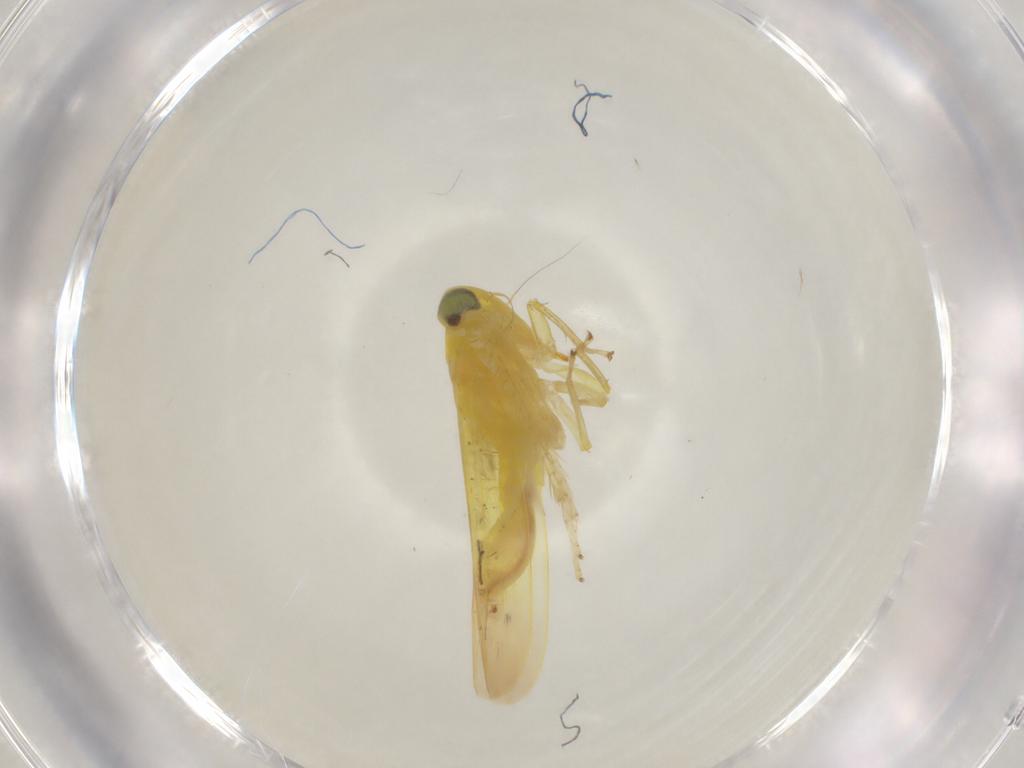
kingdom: Animalia
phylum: Arthropoda
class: Insecta
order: Hemiptera
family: Cicadellidae
